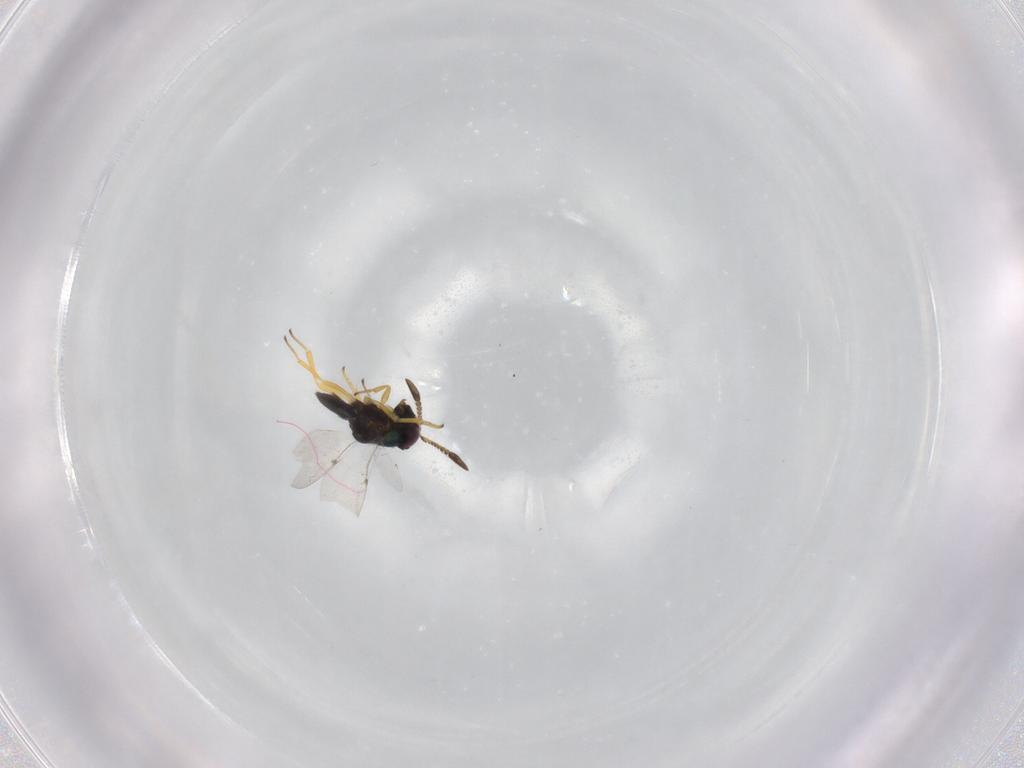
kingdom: Animalia
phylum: Arthropoda
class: Insecta
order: Hymenoptera
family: Encyrtidae
